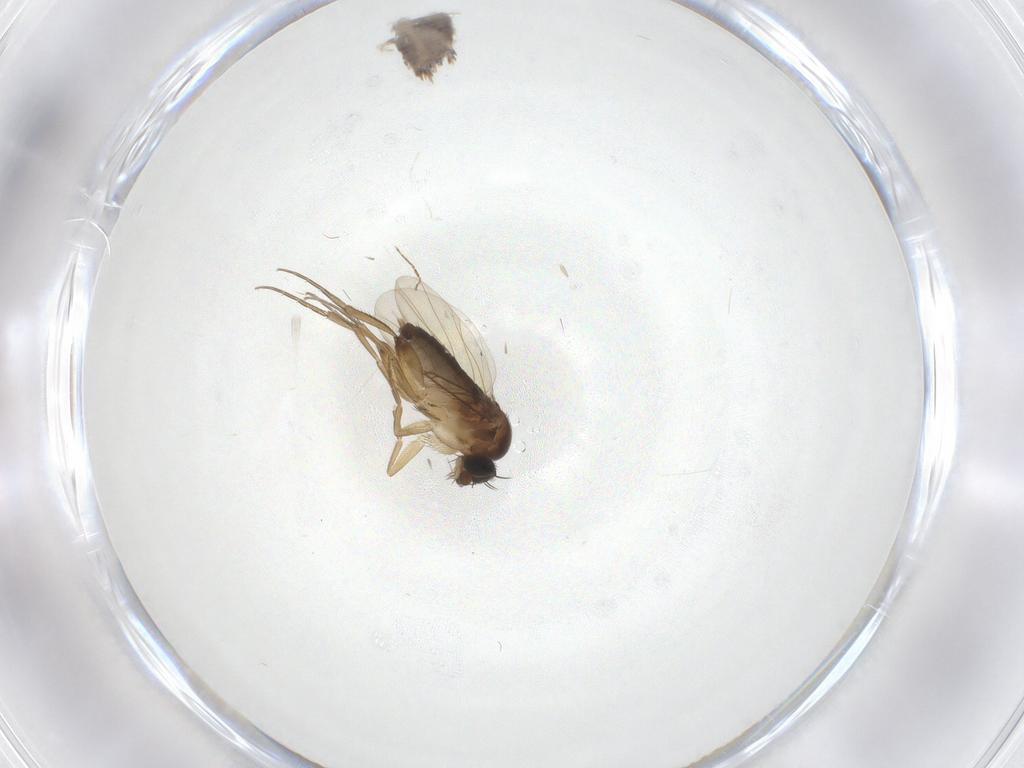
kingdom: Animalia
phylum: Arthropoda
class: Insecta
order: Diptera
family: Phoridae
